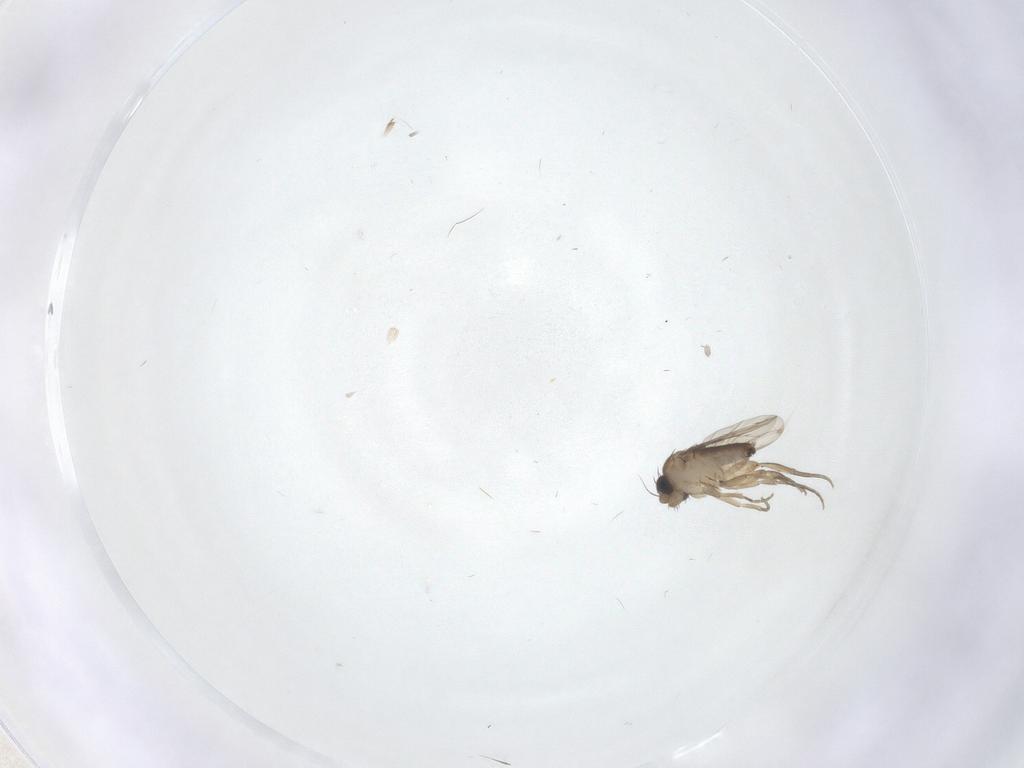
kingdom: Animalia
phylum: Arthropoda
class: Insecta
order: Diptera
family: Phoridae
